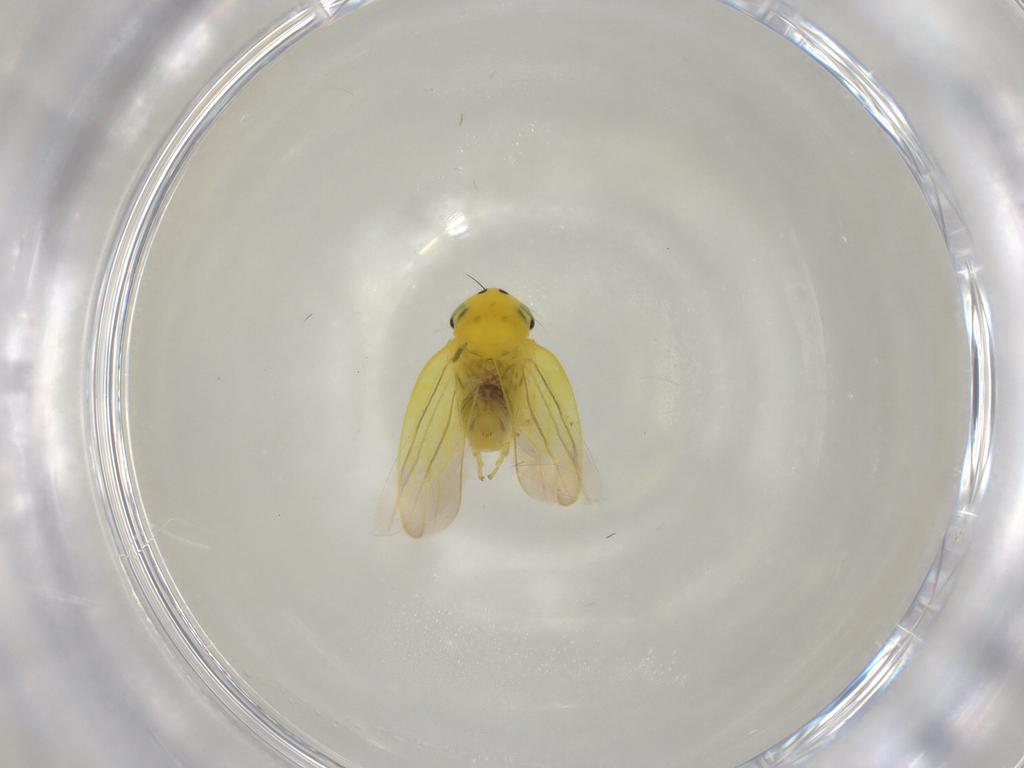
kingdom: Animalia
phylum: Arthropoda
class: Insecta
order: Hemiptera
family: Cicadellidae
